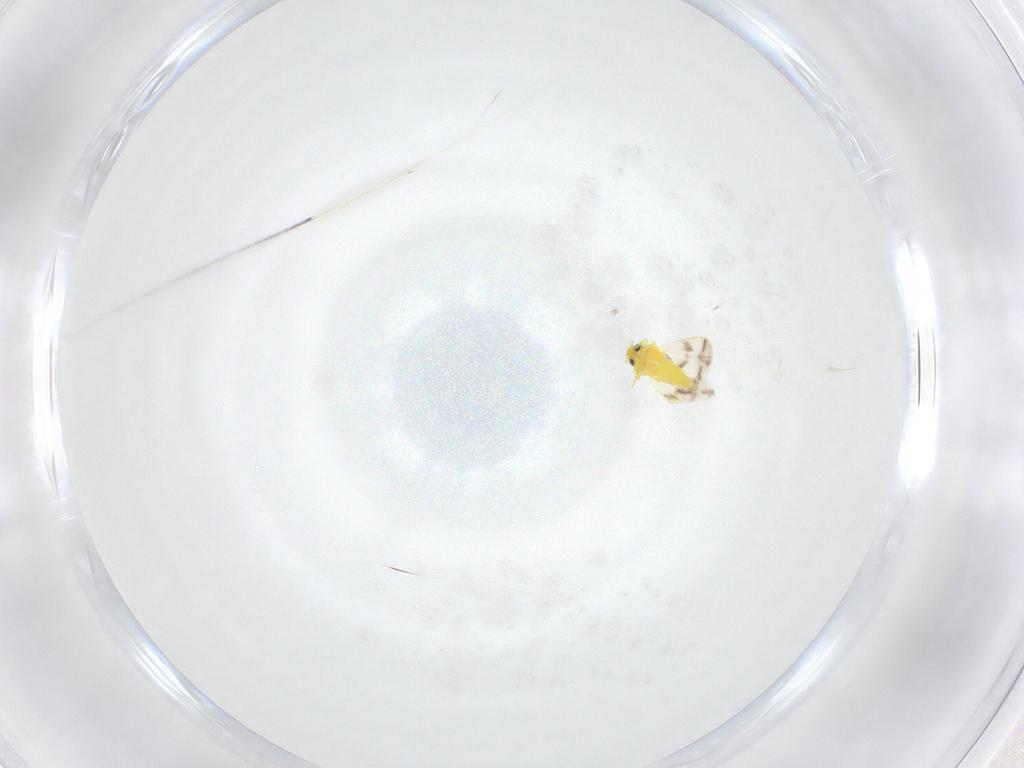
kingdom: Animalia
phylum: Arthropoda
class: Insecta
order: Hemiptera
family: Aleyrodidae
